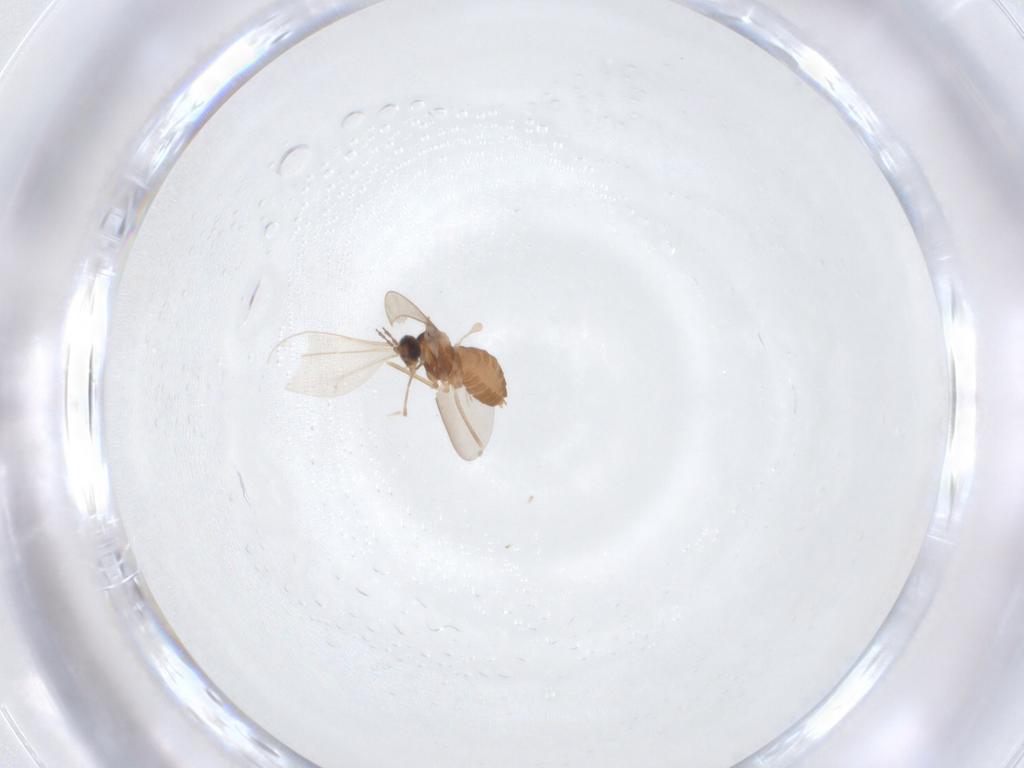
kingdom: Animalia
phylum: Arthropoda
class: Insecta
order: Diptera
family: Cecidomyiidae
